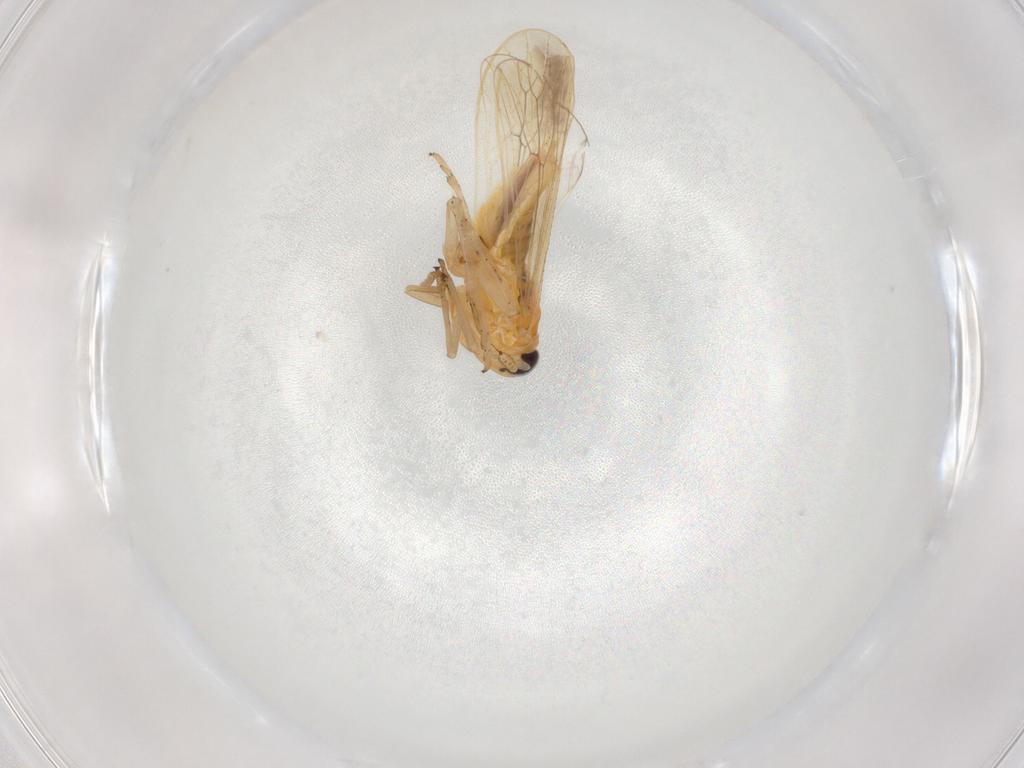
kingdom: Animalia
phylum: Arthropoda
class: Insecta
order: Hemiptera
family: Delphacidae
